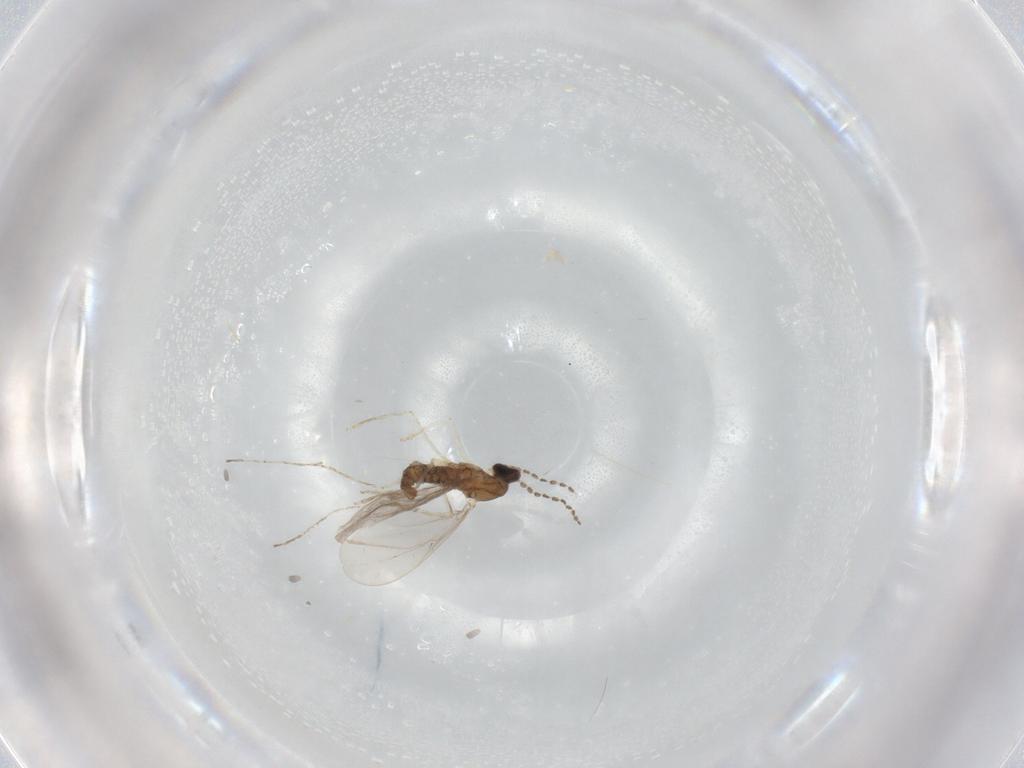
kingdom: Animalia
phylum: Arthropoda
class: Insecta
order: Diptera
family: Cecidomyiidae
